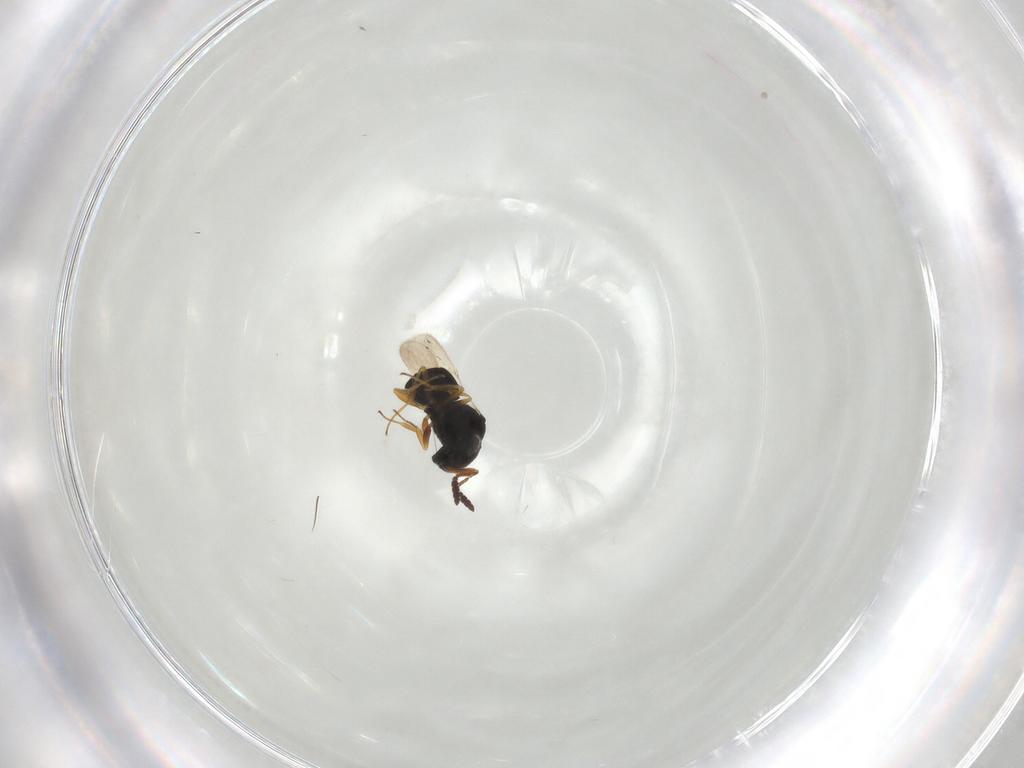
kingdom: Animalia
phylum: Arthropoda
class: Insecta
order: Hymenoptera
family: Scelionidae
